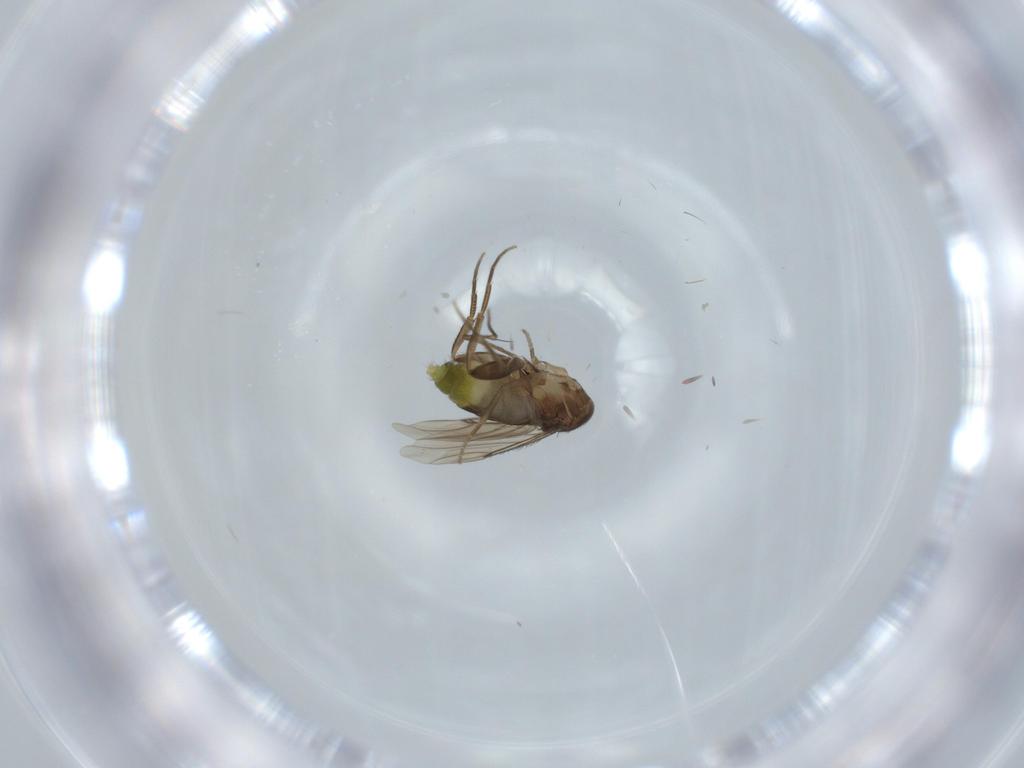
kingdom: Animalia
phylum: Arthropoda
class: Insecta
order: Diptera
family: Phoridae
